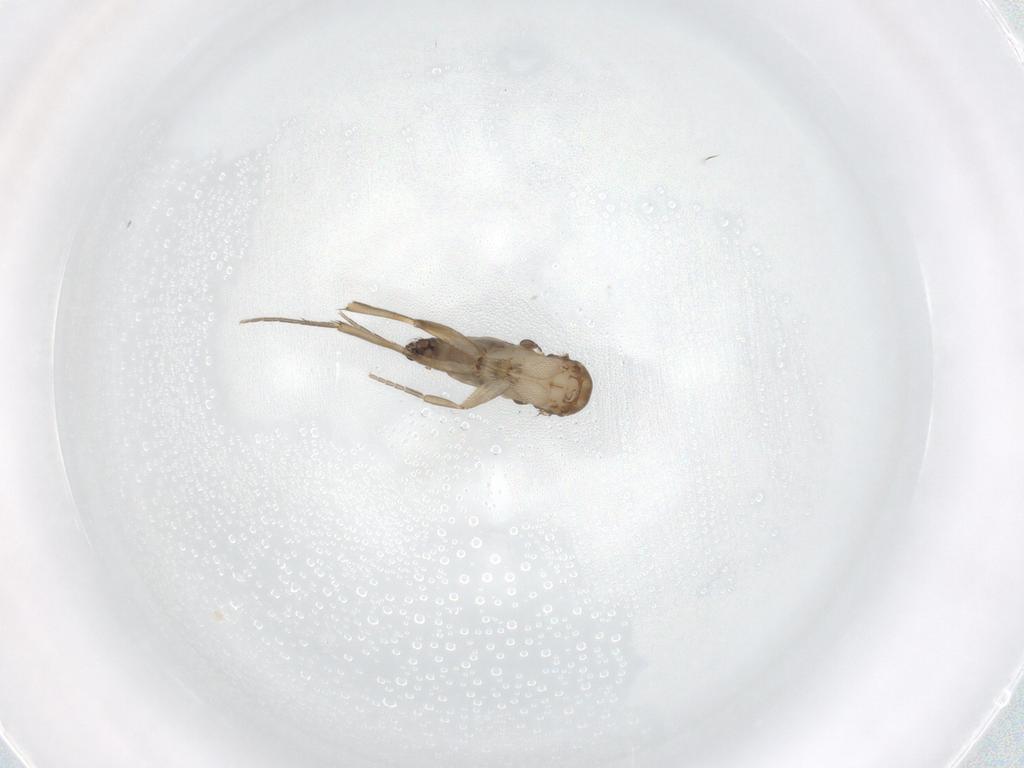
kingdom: Animalia
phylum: Arthropoda
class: Insecta
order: Diptera
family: Phoridae
